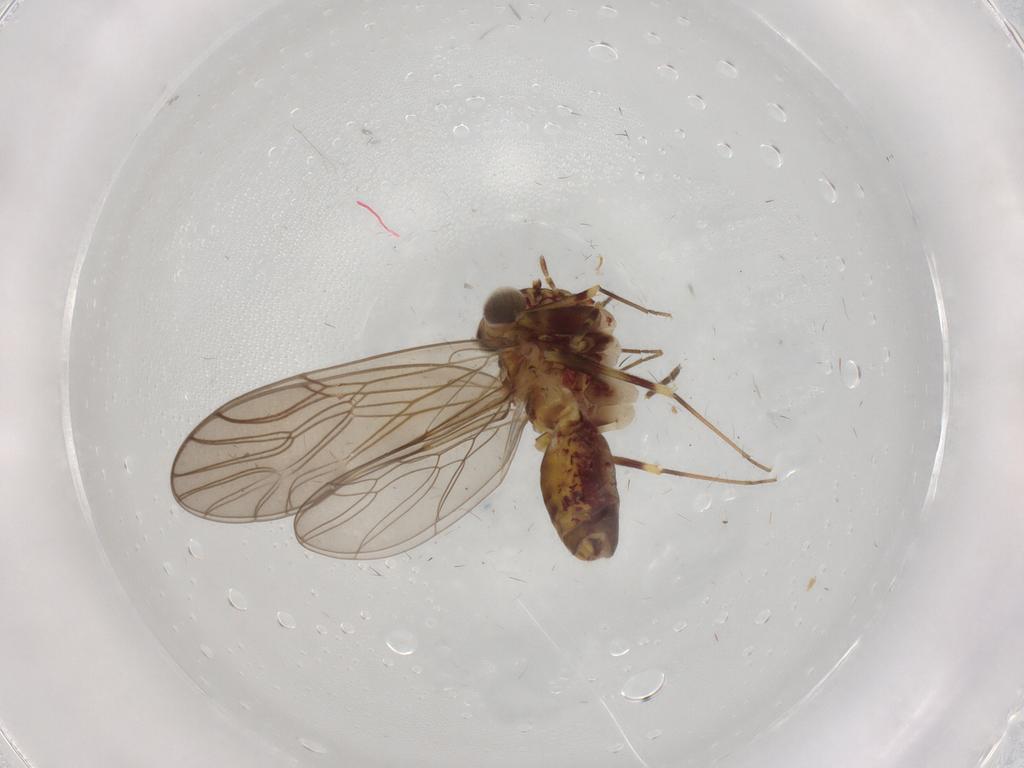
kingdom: Animalia
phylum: Arthropoda
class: Insecta
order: Psocodea
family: Philotarsidae
